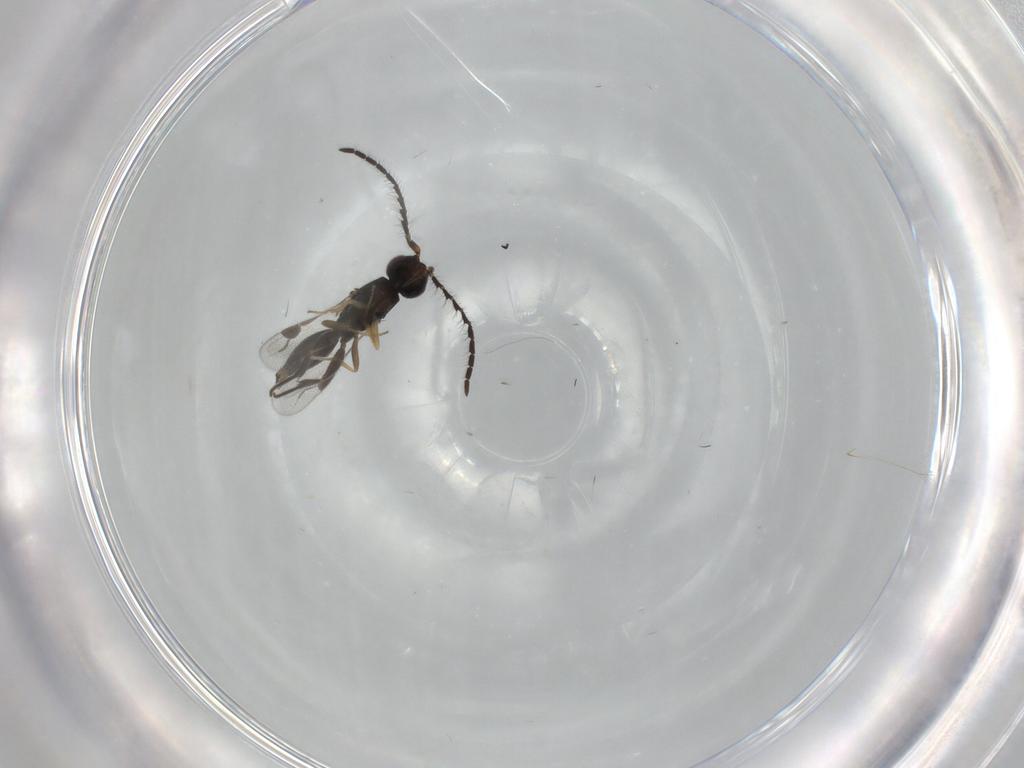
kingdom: Animalia
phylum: Arthropoda
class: Insecta
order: Hymenoptera
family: Megaspilidae
